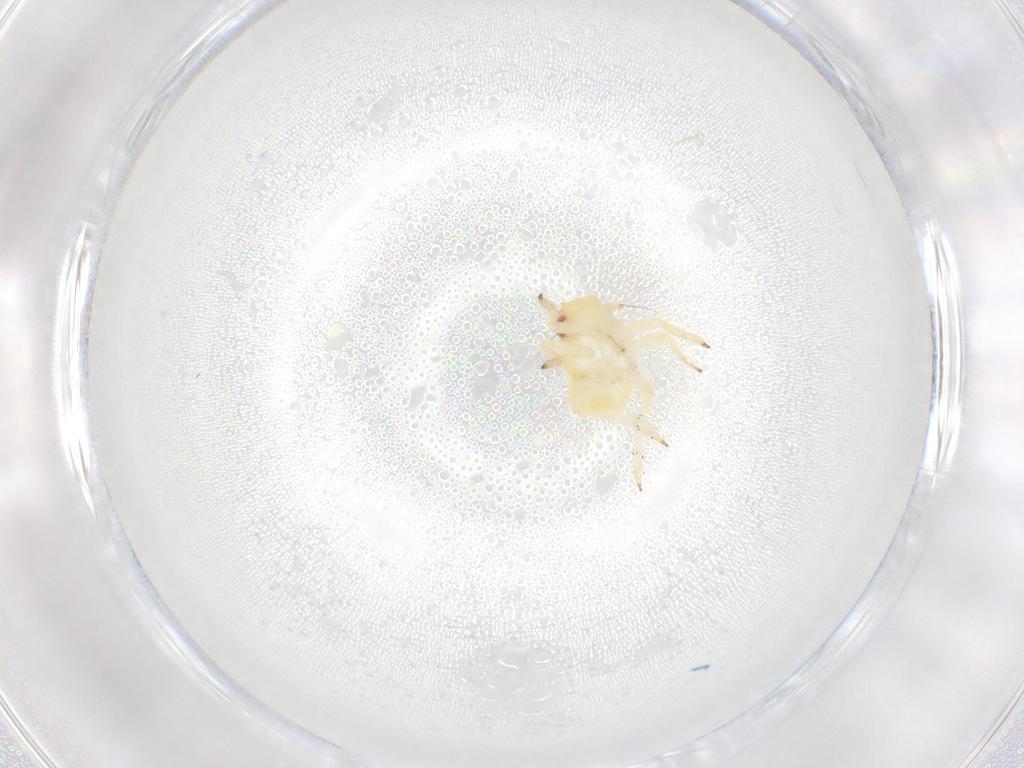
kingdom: Animalia
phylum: Arthropoda
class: Insecta
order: Hemiptera
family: Caliscelidae
